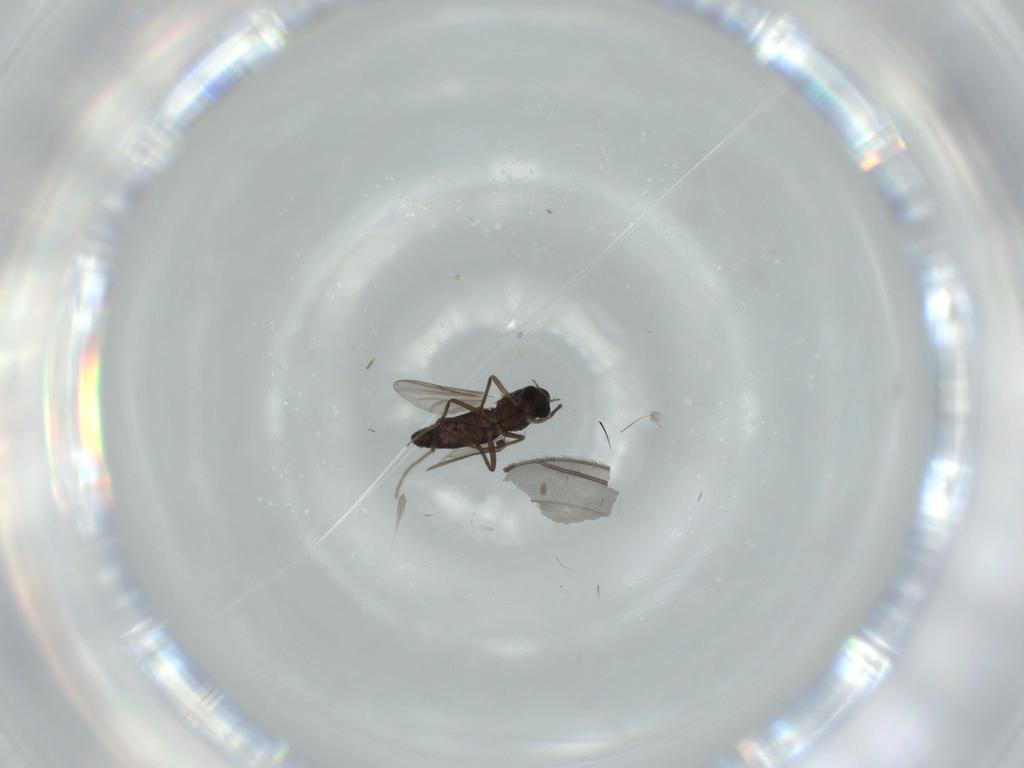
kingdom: Animalia
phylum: Arthropoda
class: Insecta
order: Diptera
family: Chironomidae
